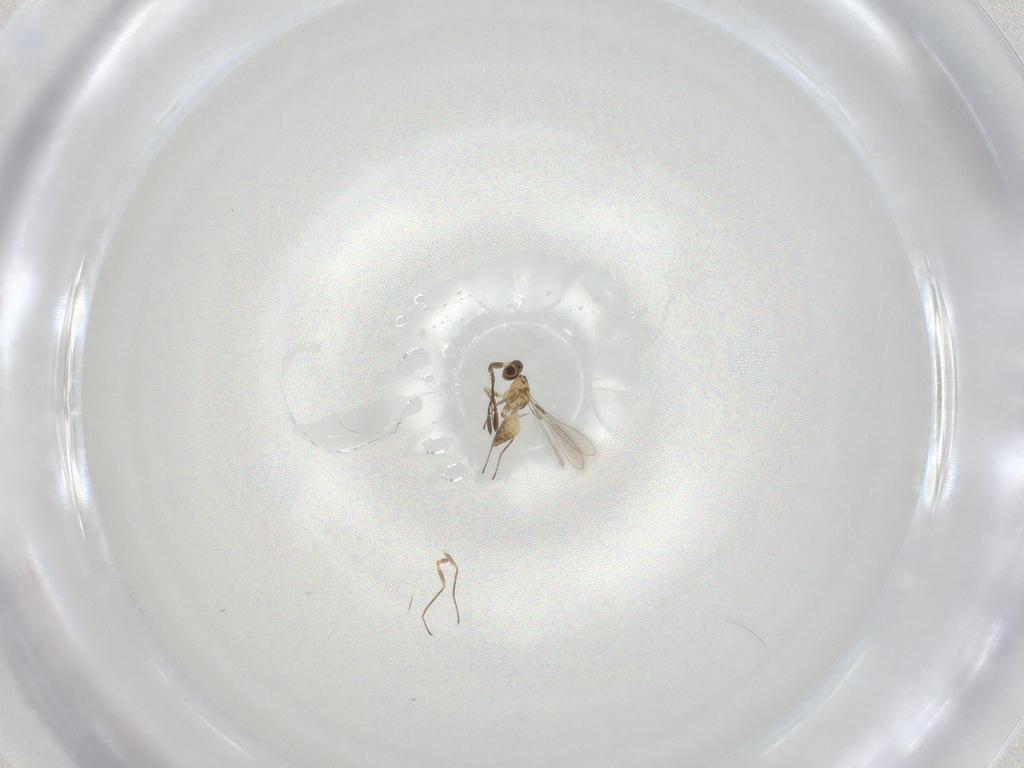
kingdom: Animalia
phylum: Arthropoda
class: Insecta
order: Hymenoptera
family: Mymaridae
